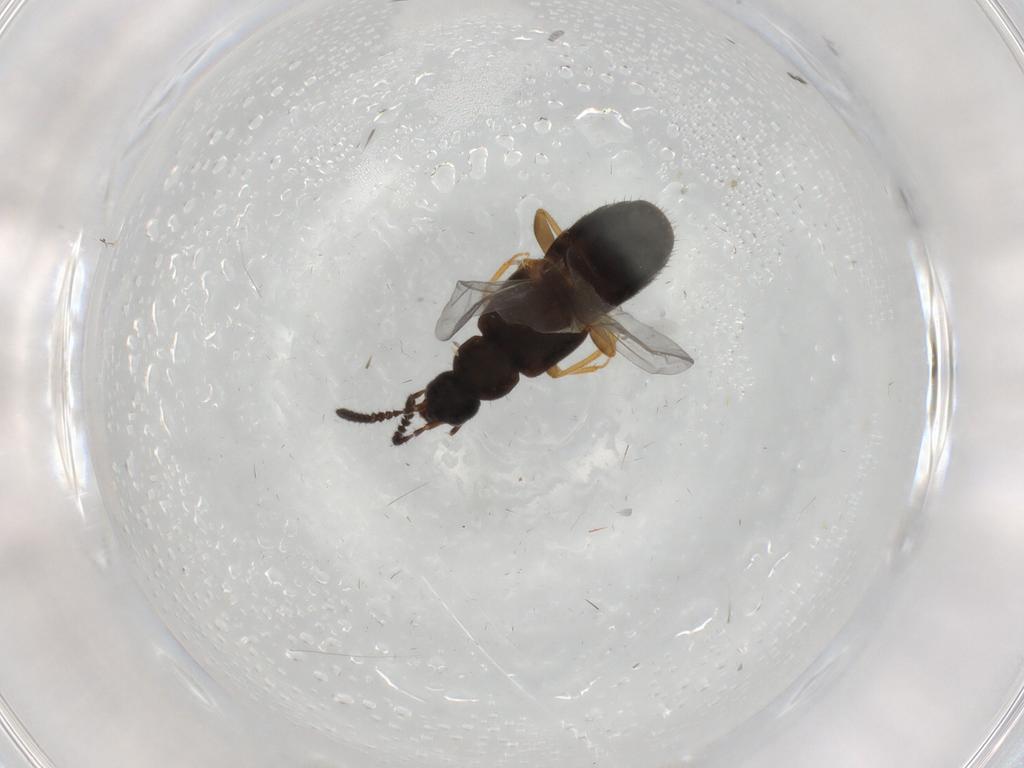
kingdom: Animalia
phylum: Arthropoda
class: Insecta
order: Coleoptera
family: Staphylinidae
